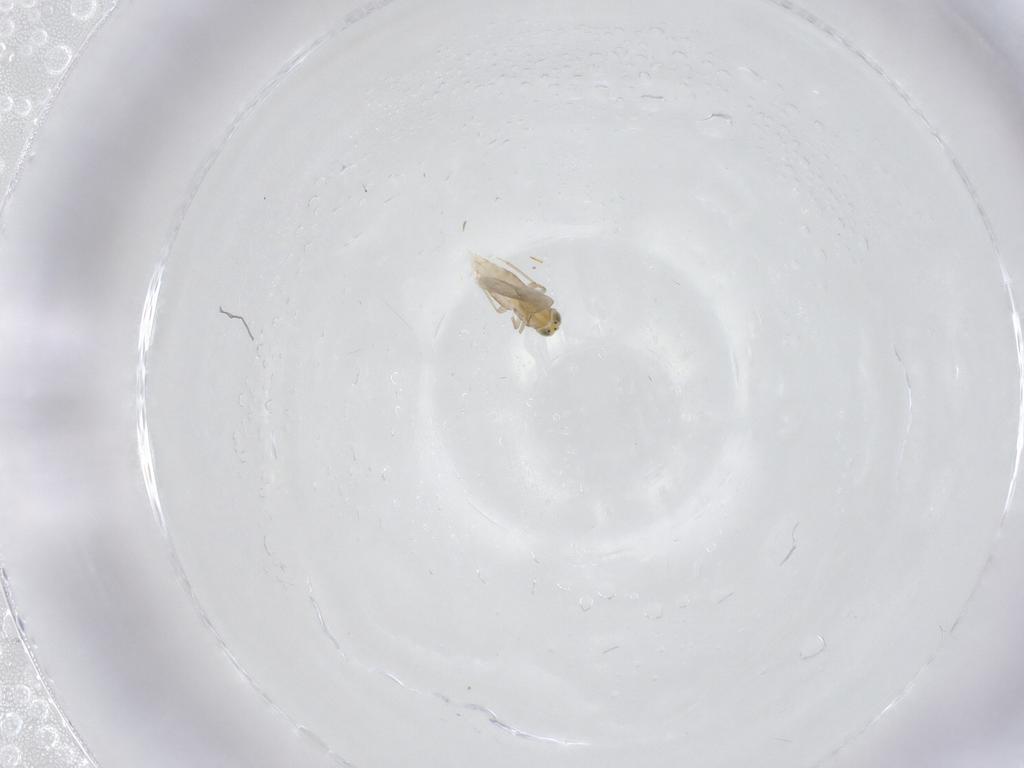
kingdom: Animalia
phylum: Arthropoda
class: Insecta
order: Hymenoptera
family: Aphelinidae
